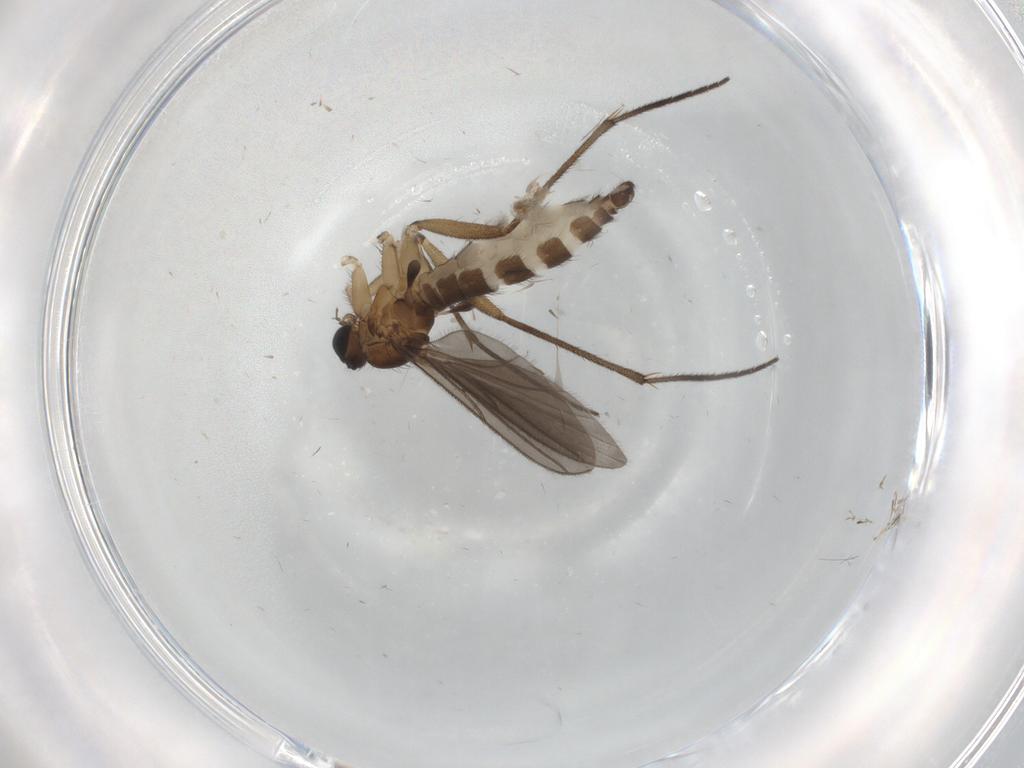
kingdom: Animalia
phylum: Arthropoda
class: Insecta
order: Diptera
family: Sciaridae
